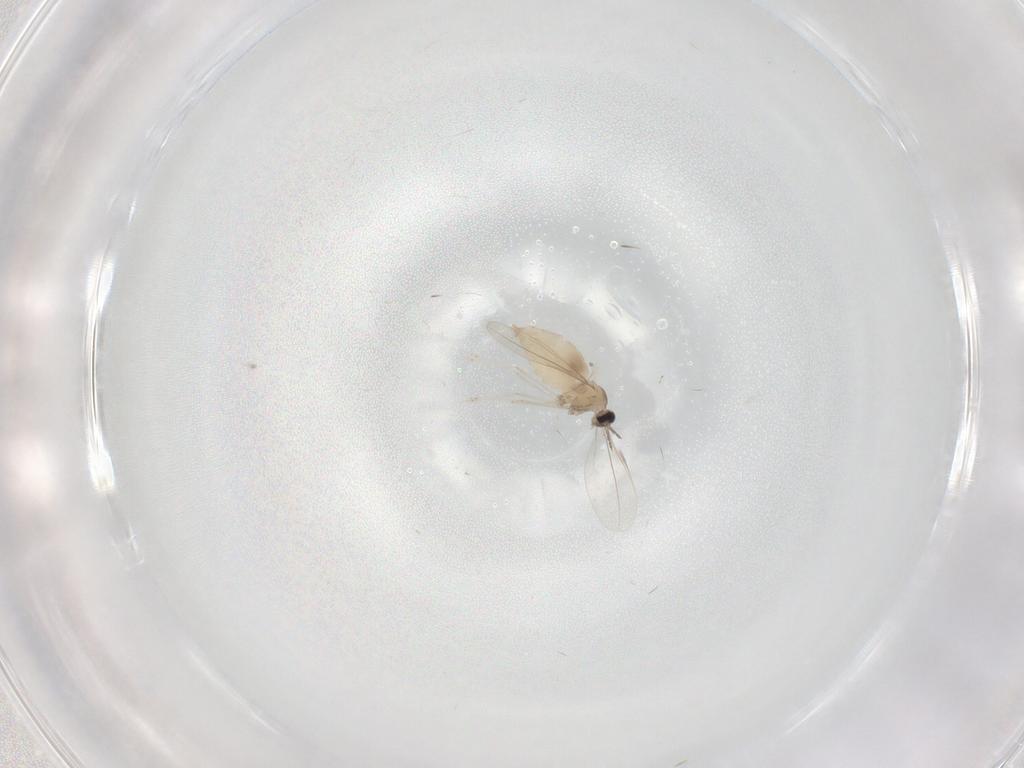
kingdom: Animalia
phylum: Arthropoda
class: Insecta
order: Diptera
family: Cecidomyiidae
